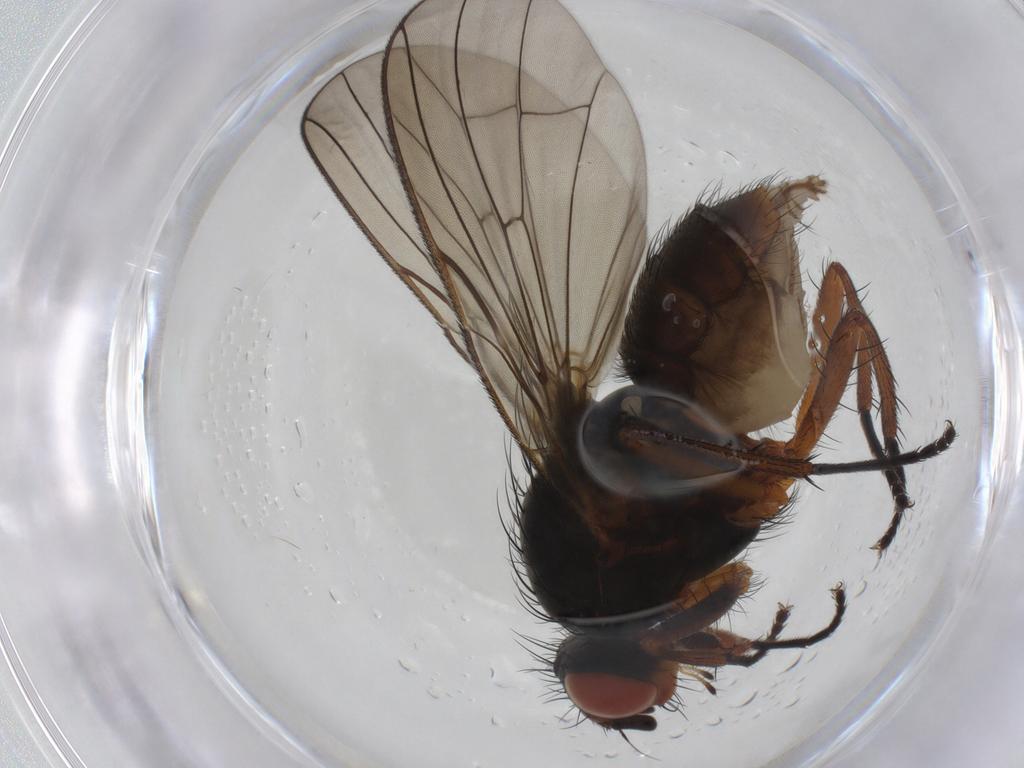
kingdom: Animalia
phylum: Arthropoda
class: Insecta
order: Diptera
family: Anthomyiidae
